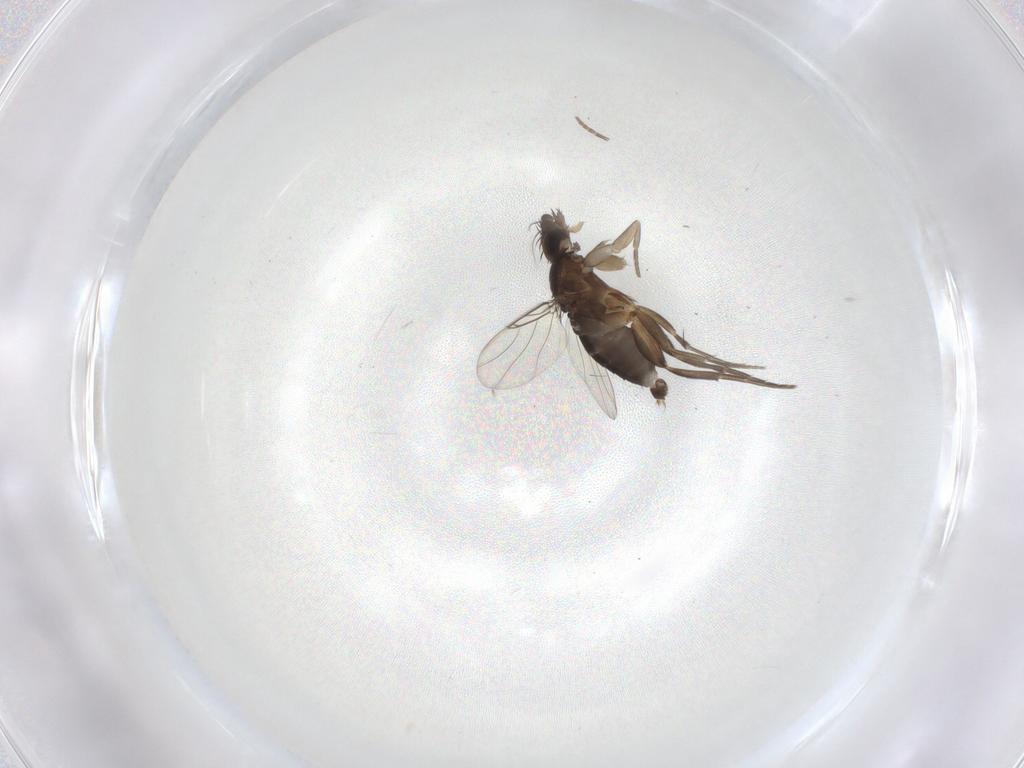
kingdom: Animalia
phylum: Arthropoda
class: Insecta
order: Diptera
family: Phoridae
